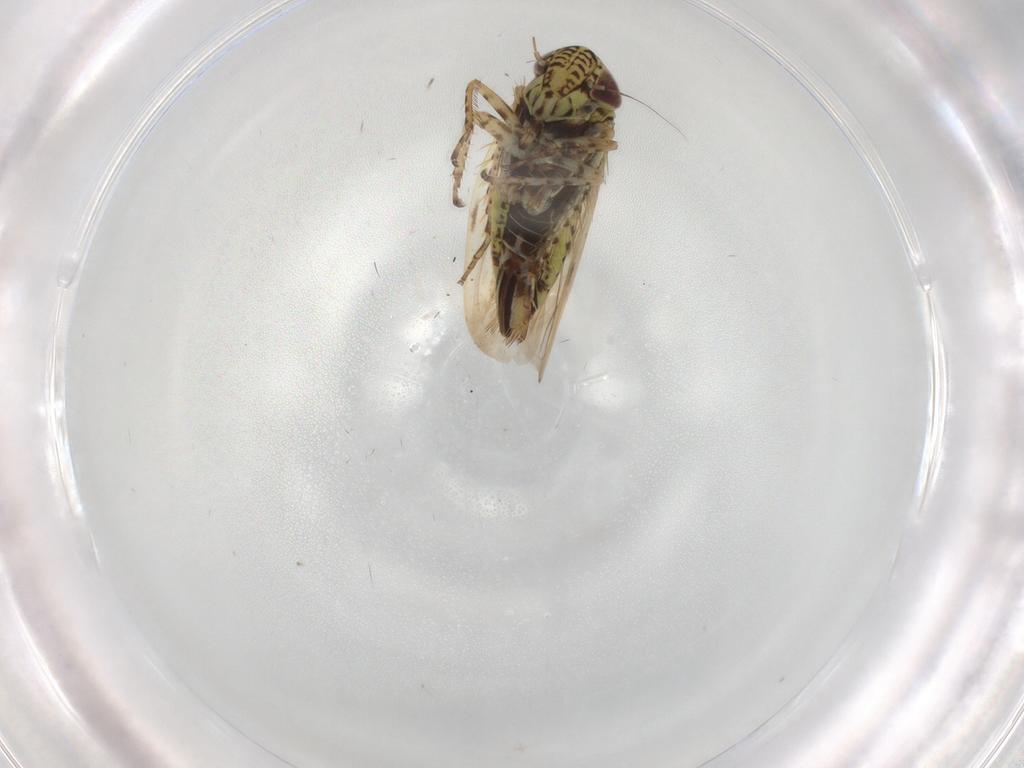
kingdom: Animalia
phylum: Arthropoda
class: Insecta
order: Hemiptera
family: Cicadellidae
